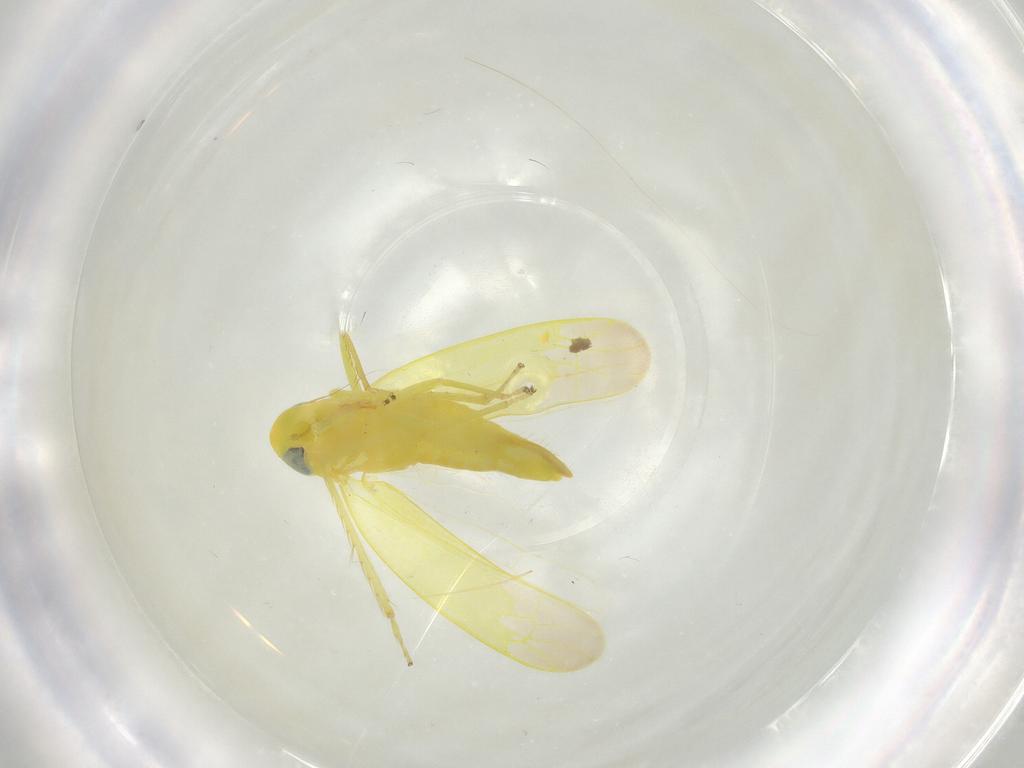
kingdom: Animalia
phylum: Arthropoda
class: Insecta
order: Hemiptera
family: Cicadellidae
